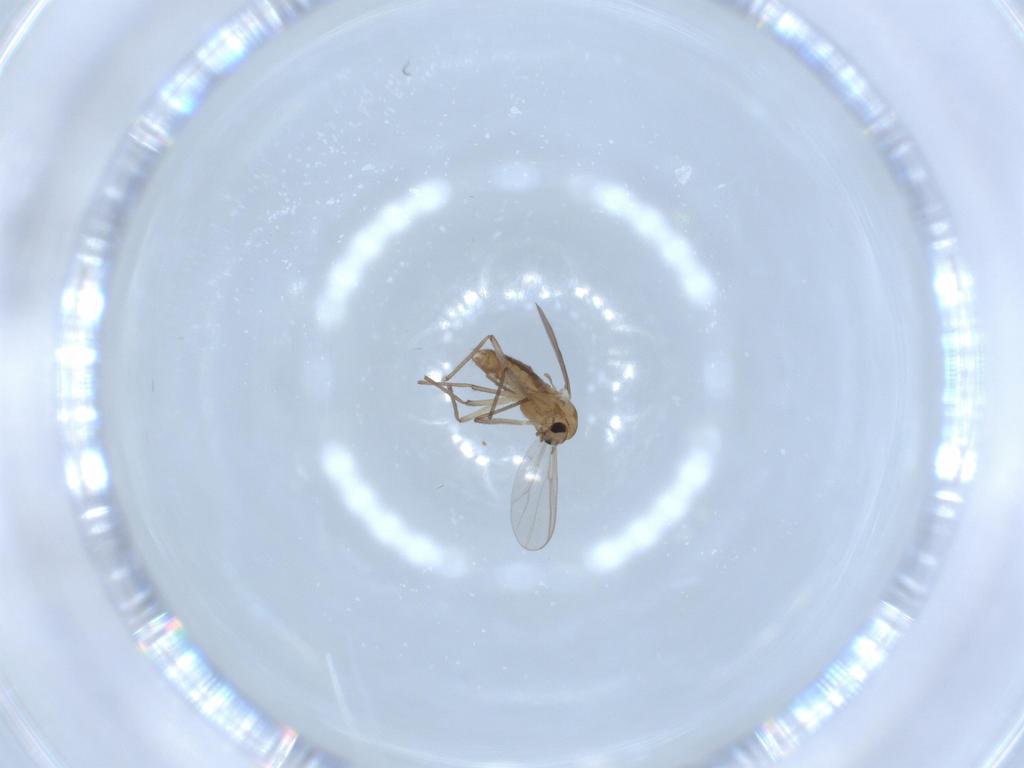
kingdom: Animalia
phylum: Arthropoda
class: Insecta
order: Diptera
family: Chironomidae
